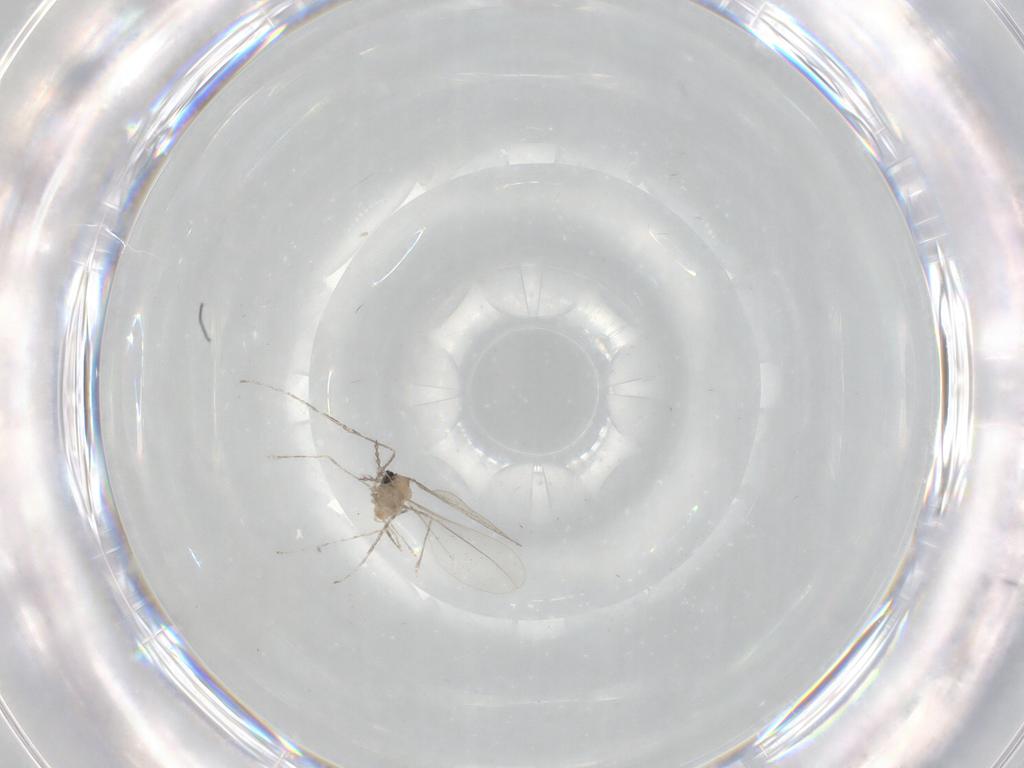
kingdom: Animalia
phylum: Arthropoda
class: Insecta
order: Diptera
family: Cecidomyiidae
